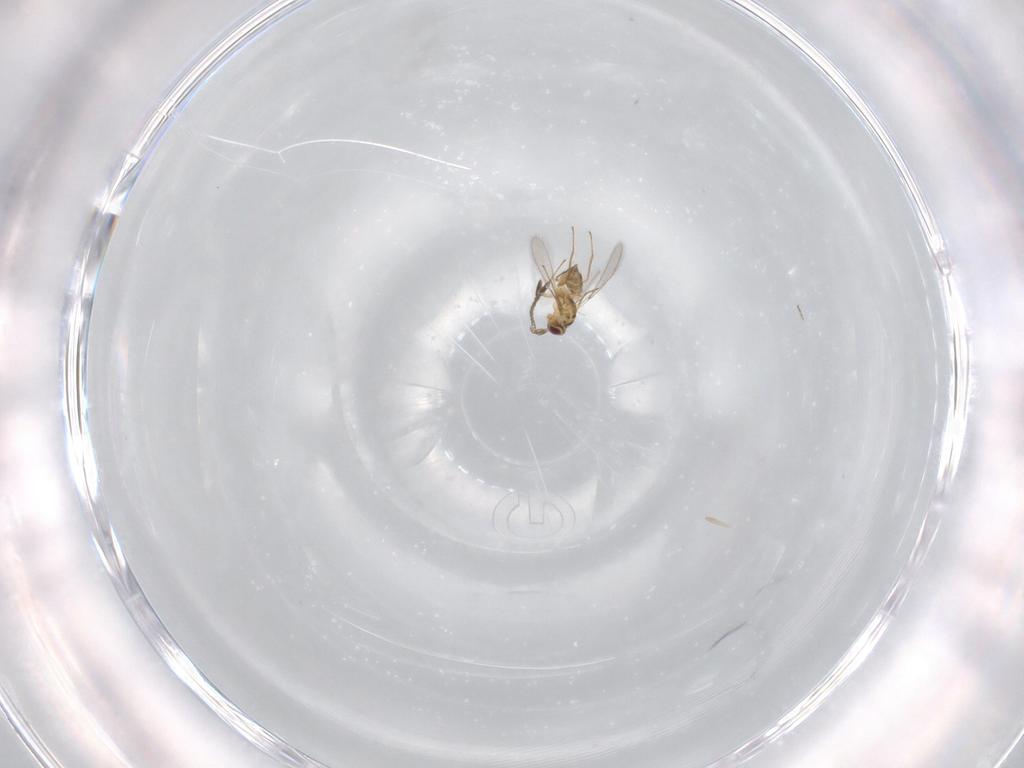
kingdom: Animalia
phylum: Arthropoda
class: Insecta
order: Hymenoptera
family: Mymaridae
